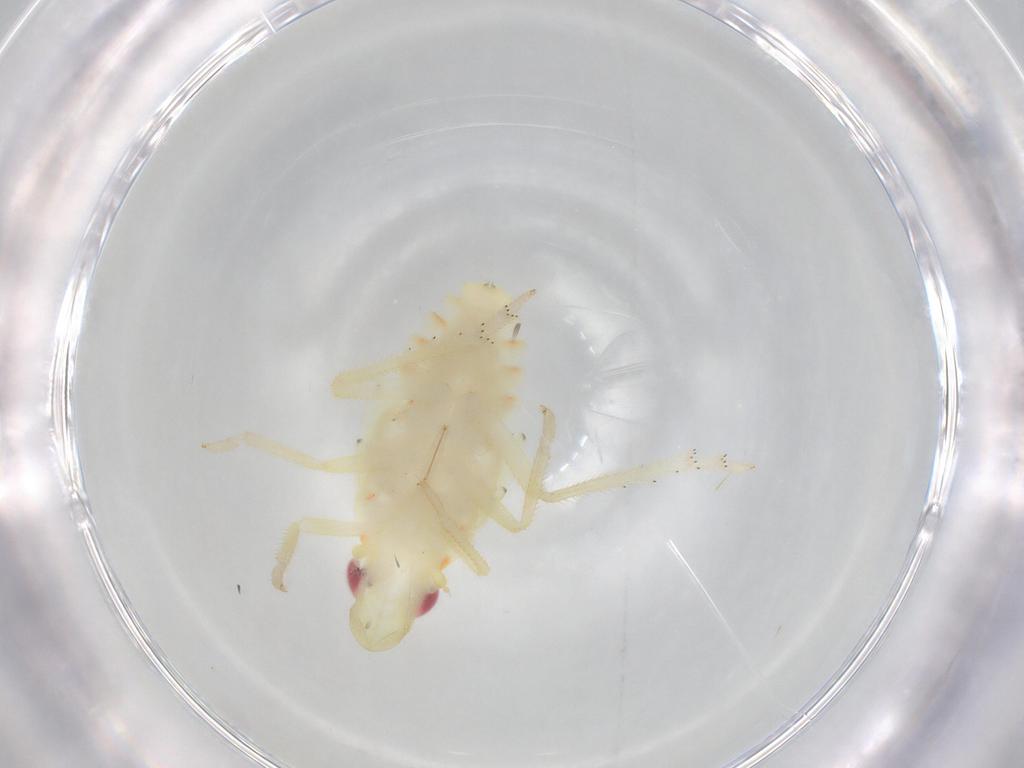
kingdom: Animalia
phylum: Arthropoda
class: Insecta
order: Hemiptera
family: Tropiduchidae
